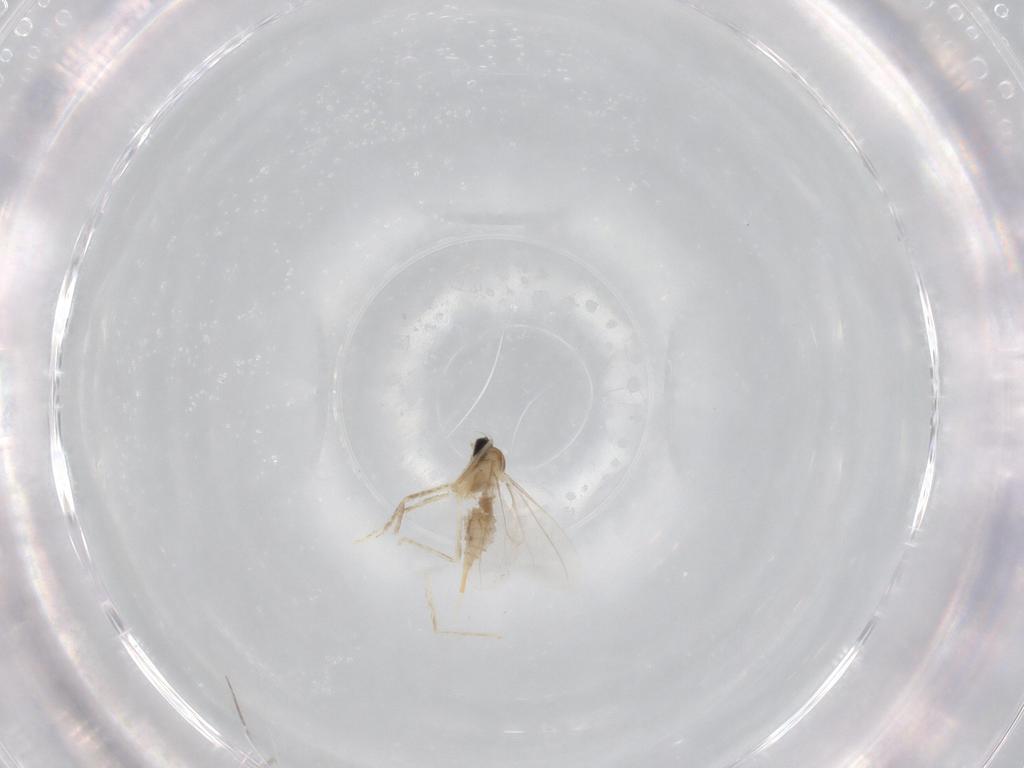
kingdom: Animalia
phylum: Arthropoda
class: Insecta
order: Diptera
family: Cecidomyiidae
